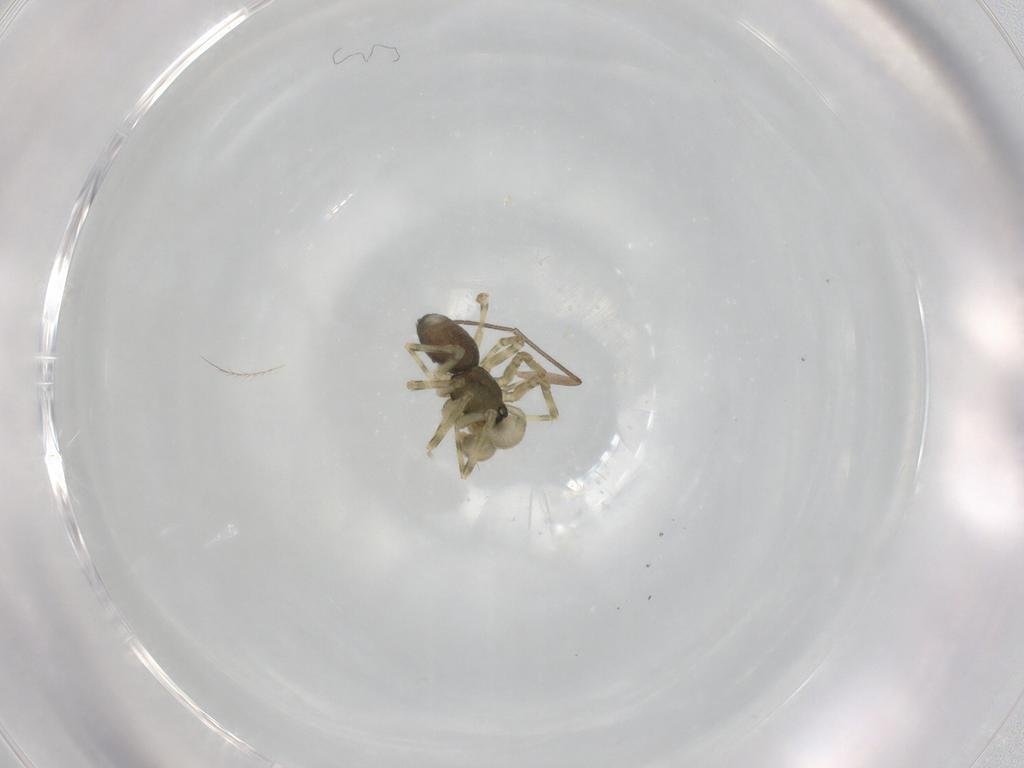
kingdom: Animalia
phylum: Arthropoda
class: Arachnida
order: Araneae
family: Linyphiidae
